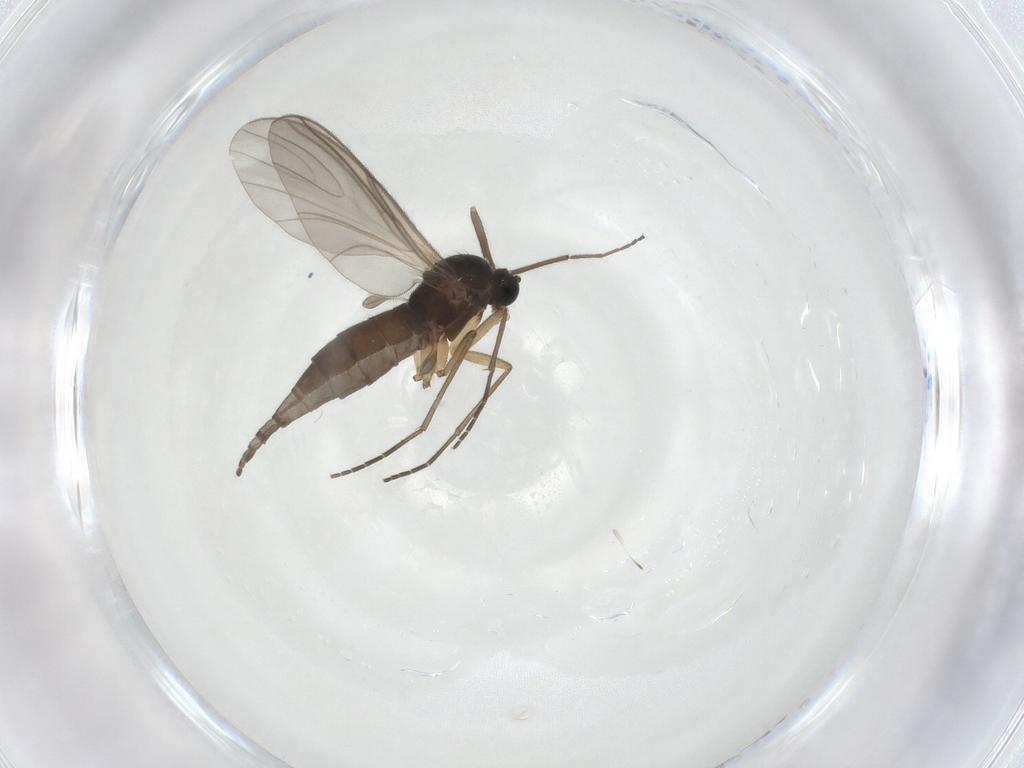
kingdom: Animalia
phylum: Arthropoda
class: Insecta
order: Diptera
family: Sciaridae
